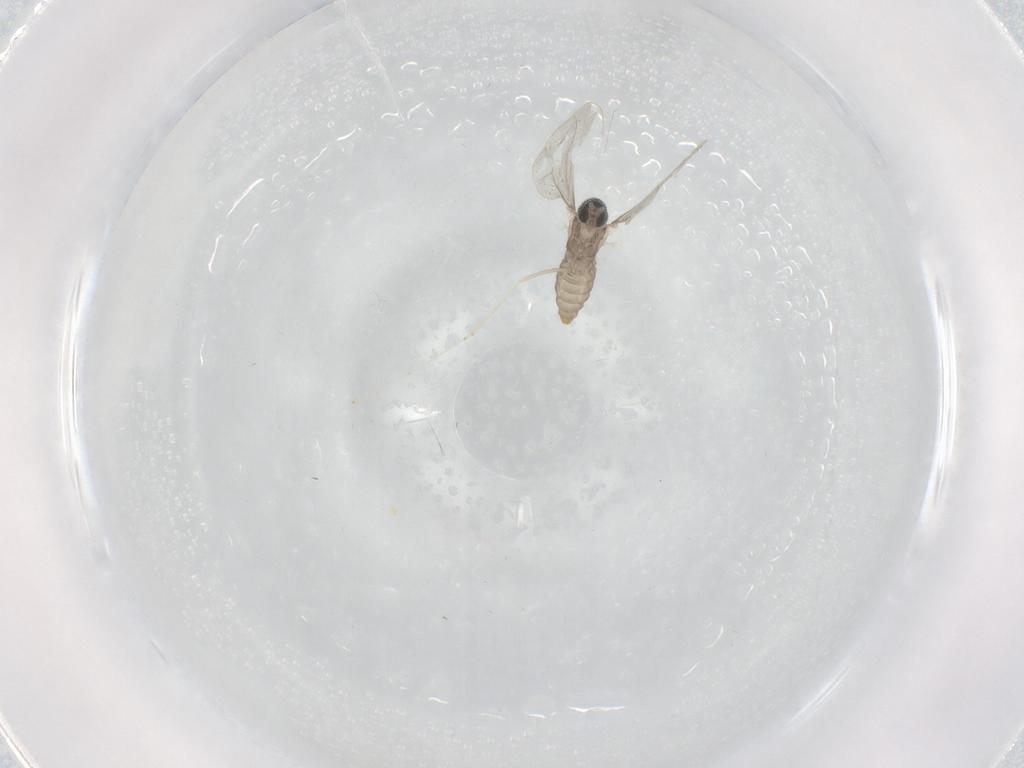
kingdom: Animalia
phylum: Arthropoda
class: Insecta
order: Diptera
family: Cecidomyiidae
